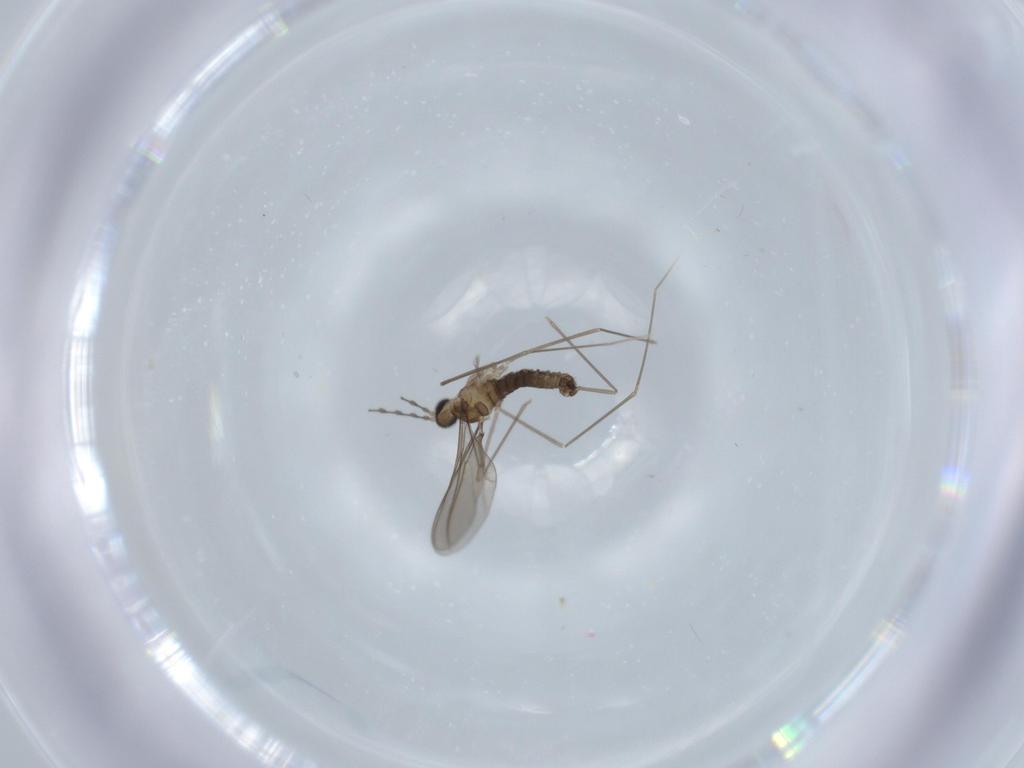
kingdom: Animalia
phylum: Arthropoda
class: Insecta
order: Diptera
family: Cecidomyiidae
